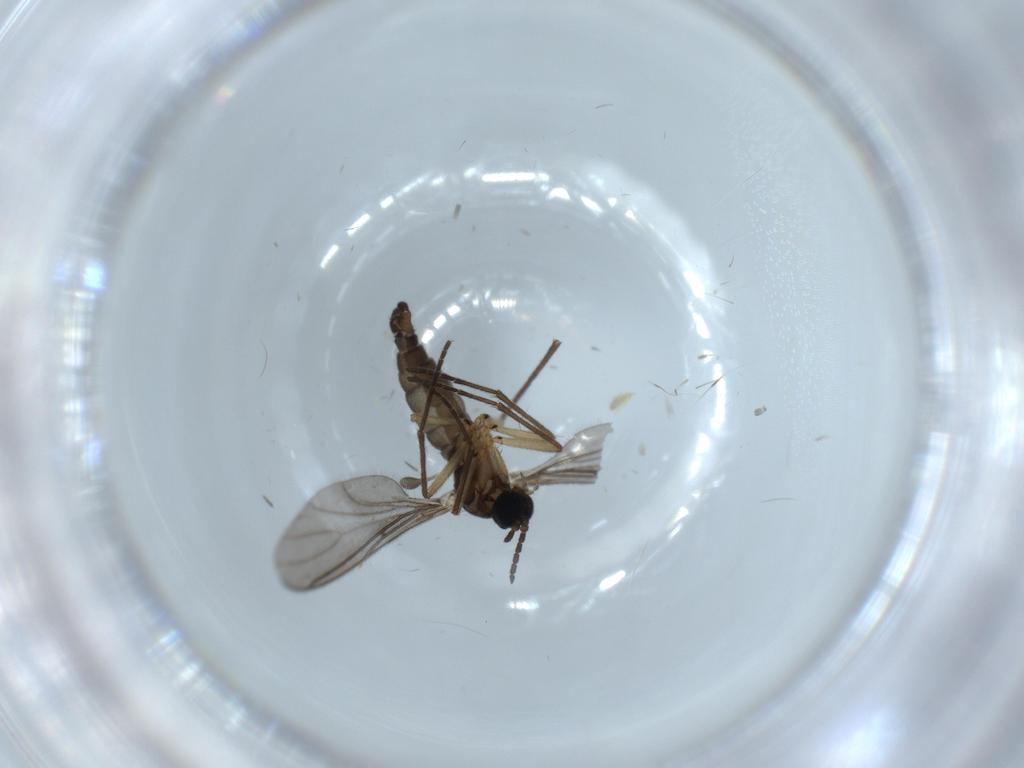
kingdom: Animalia
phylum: Arthropoda
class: Insecta
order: Diptera
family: Sciaridae
